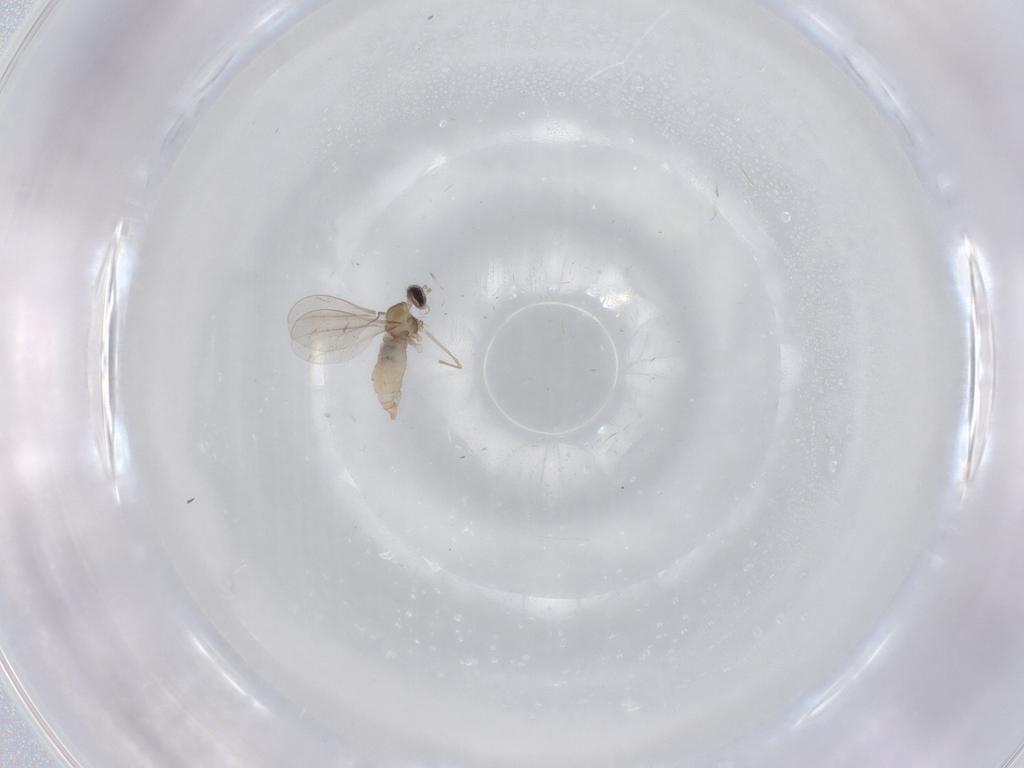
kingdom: Animalia
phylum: Arthropoda
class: Insecta
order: Diptera
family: Cecidomyiidae
